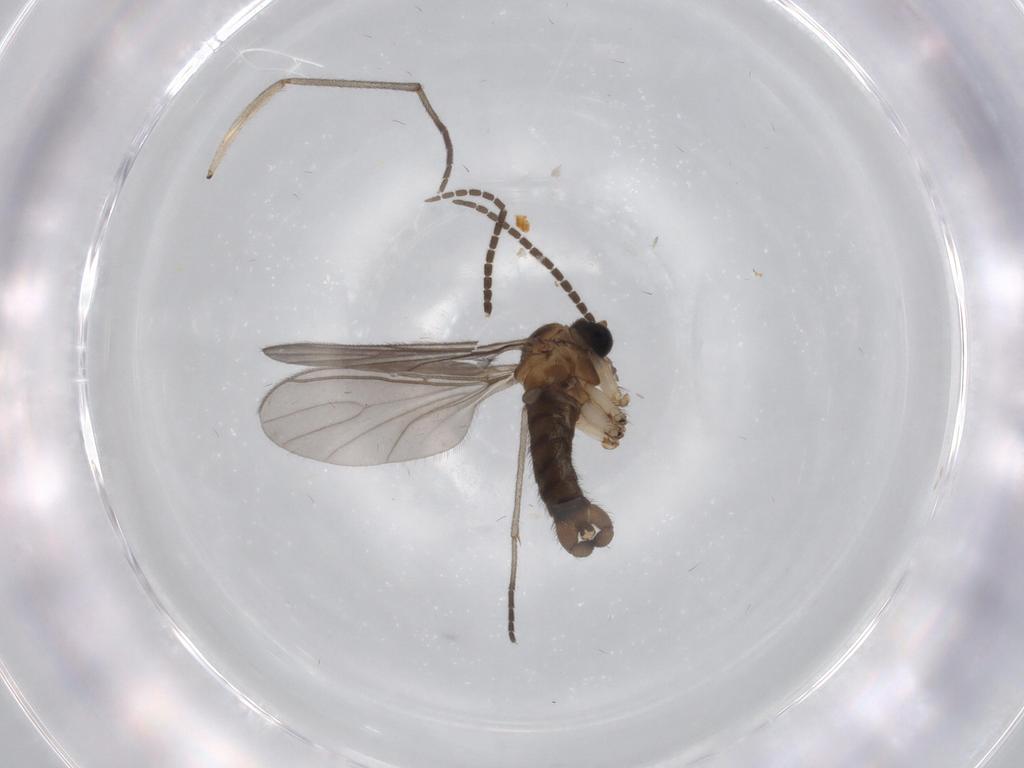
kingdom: Animalia
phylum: Arthropoda
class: Insecta
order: Diptera
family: Sciaridae
